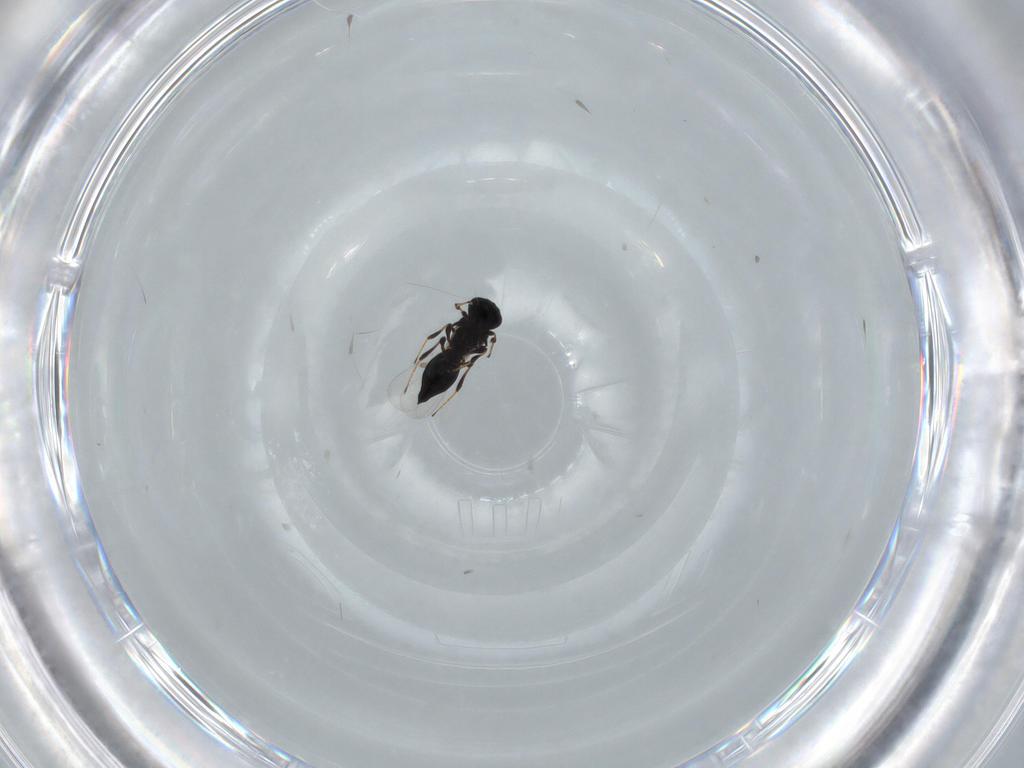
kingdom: Animalia
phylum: Arthropoda
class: Insecta
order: Hymenoptera
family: Platygastridae
